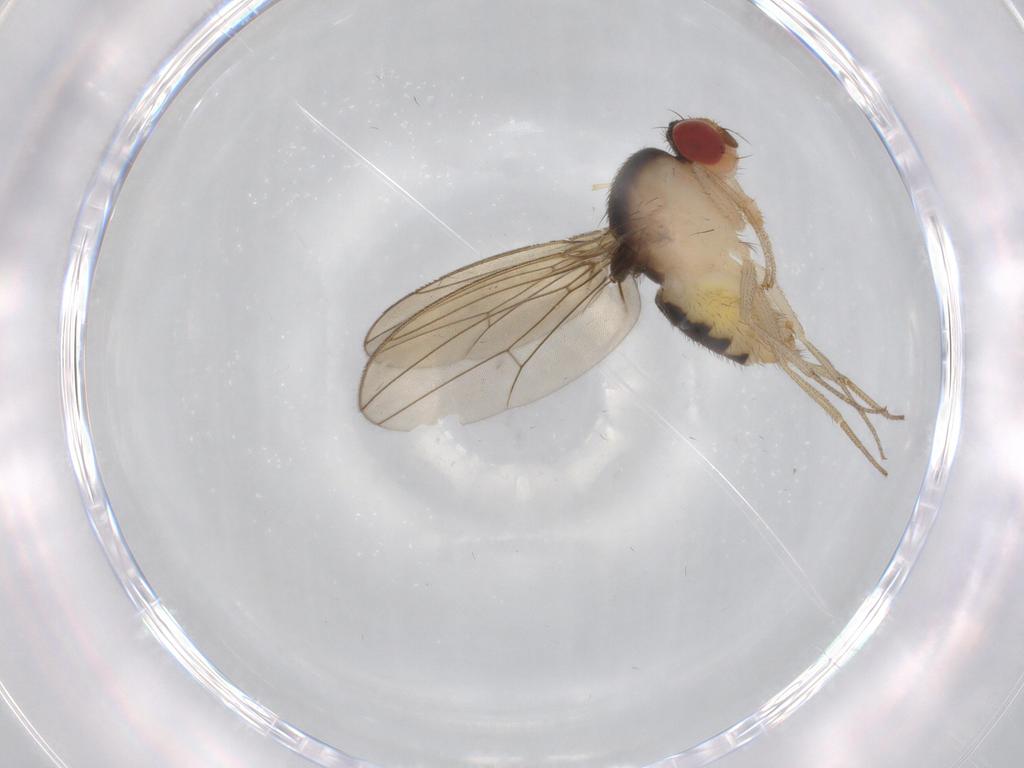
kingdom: Animalia
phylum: Arthropoda
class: Insecta
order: Diptera
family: Drosophilidae
